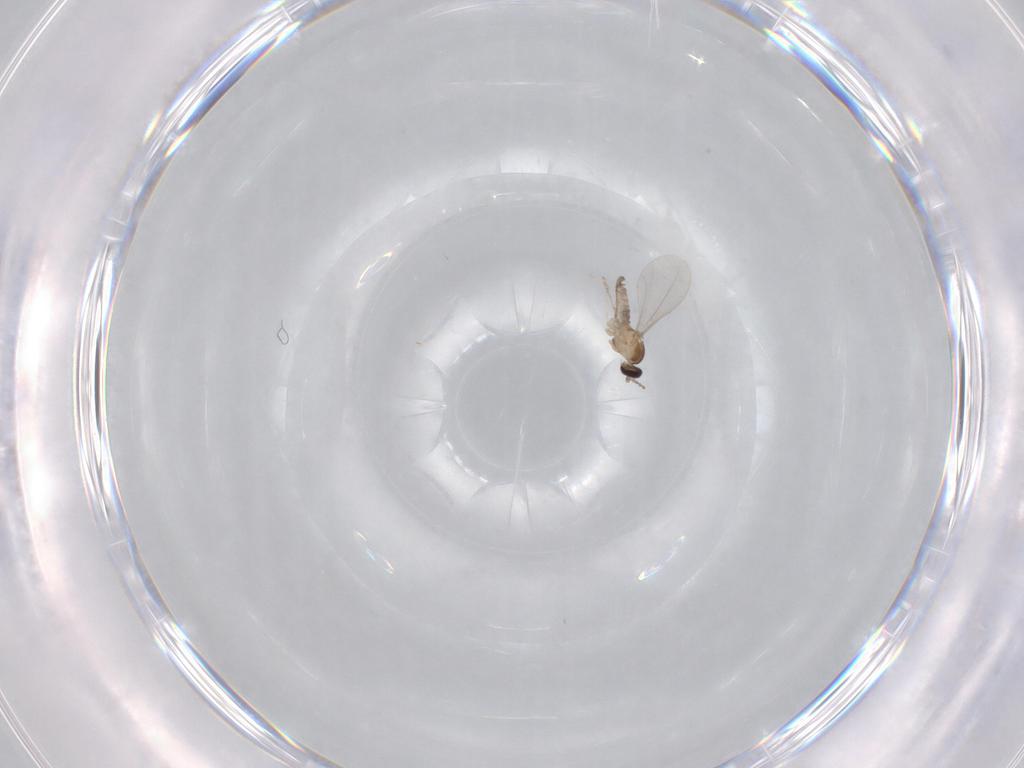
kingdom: Animalia
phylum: Arthropoda
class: Insecta
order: Diptera
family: Cecidomyiidae
